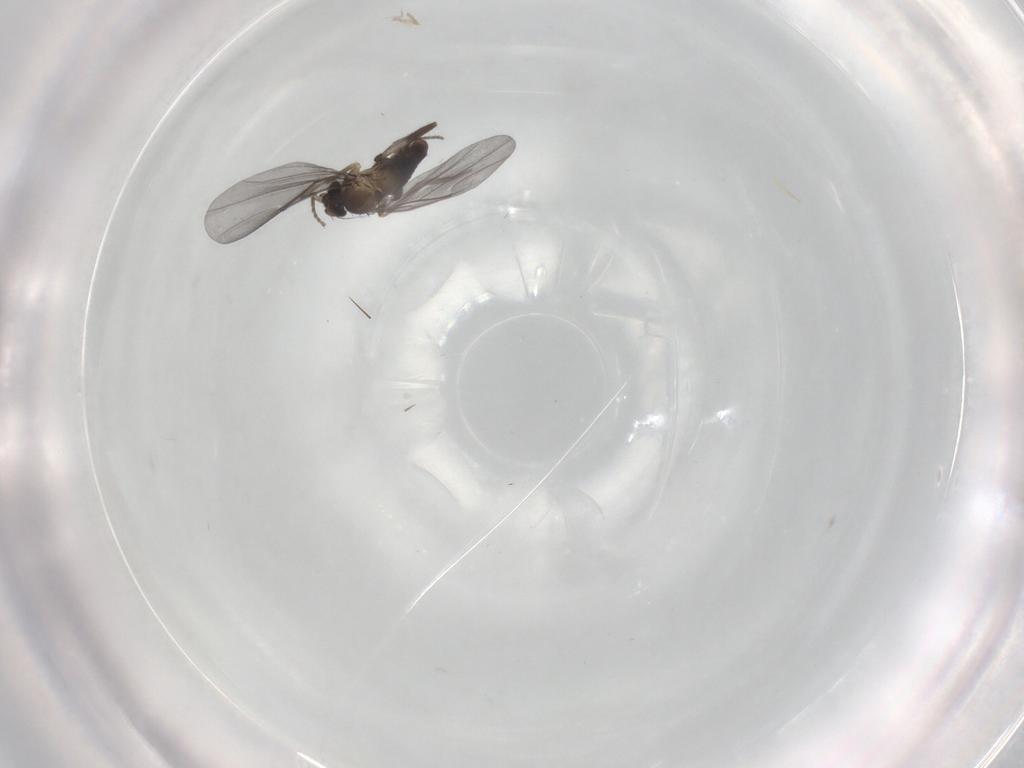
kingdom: Animalia
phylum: Arthropoda
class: Insecta
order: Diptera
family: Phoridae
